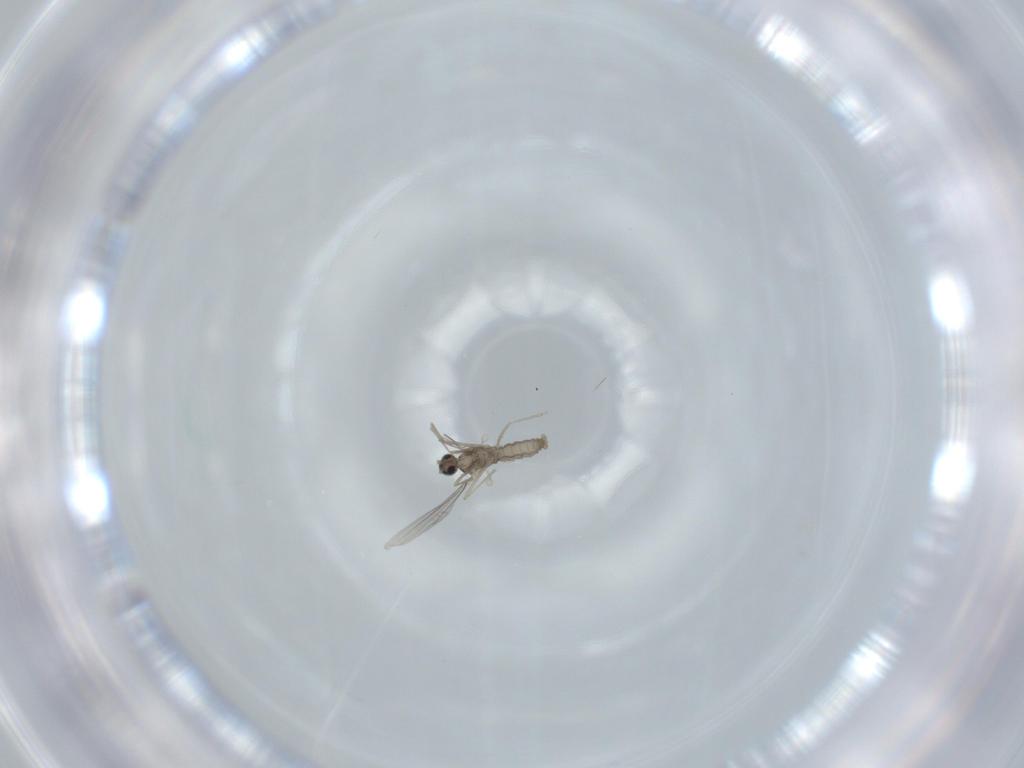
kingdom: Animalia
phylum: Arthropoda
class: Insecta
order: Diptera
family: Cecidomyiidae
